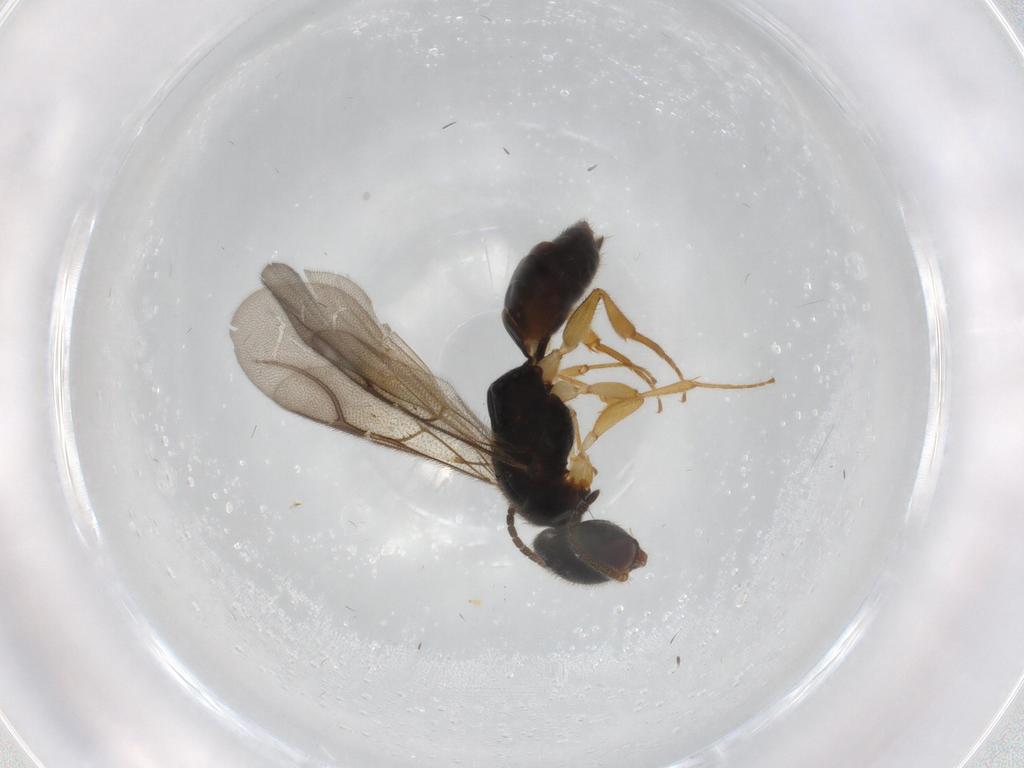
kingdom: Animalia
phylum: Arthropoda
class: Insecta
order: Hymenoptera
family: Bethylidae
